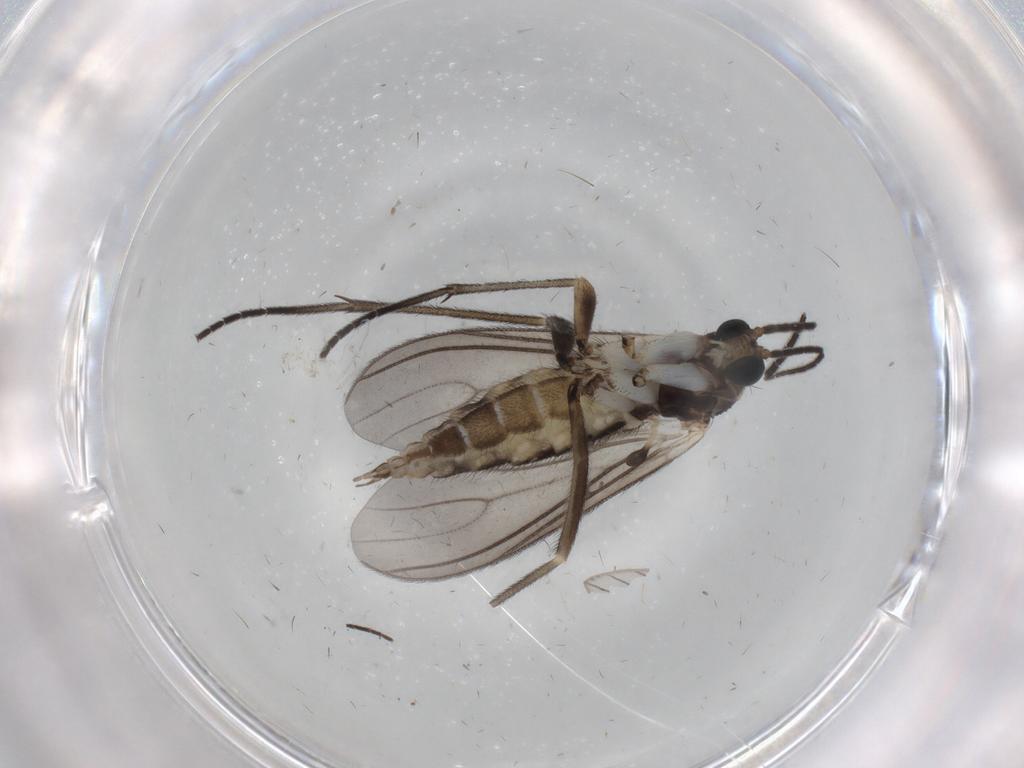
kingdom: Animalia
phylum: Arthropoda
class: Insecta
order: Diptera
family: Sciaridae
